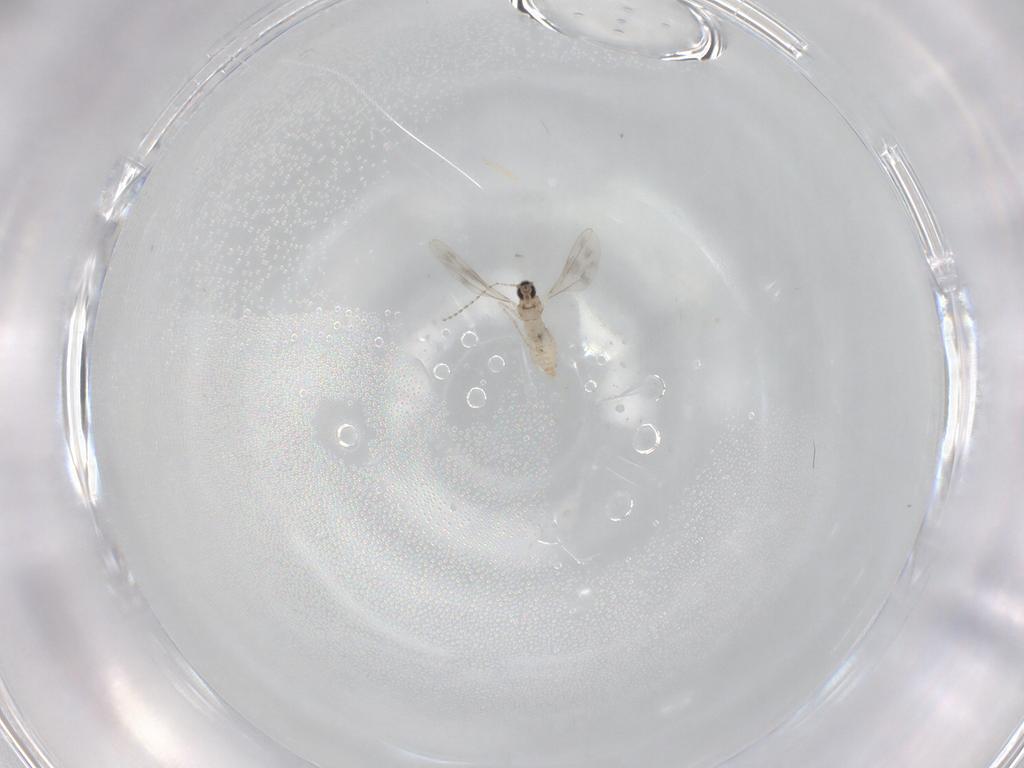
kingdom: Animalia
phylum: Arthropoda
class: Insecta
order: Diptera
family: Cecidomyiidae
